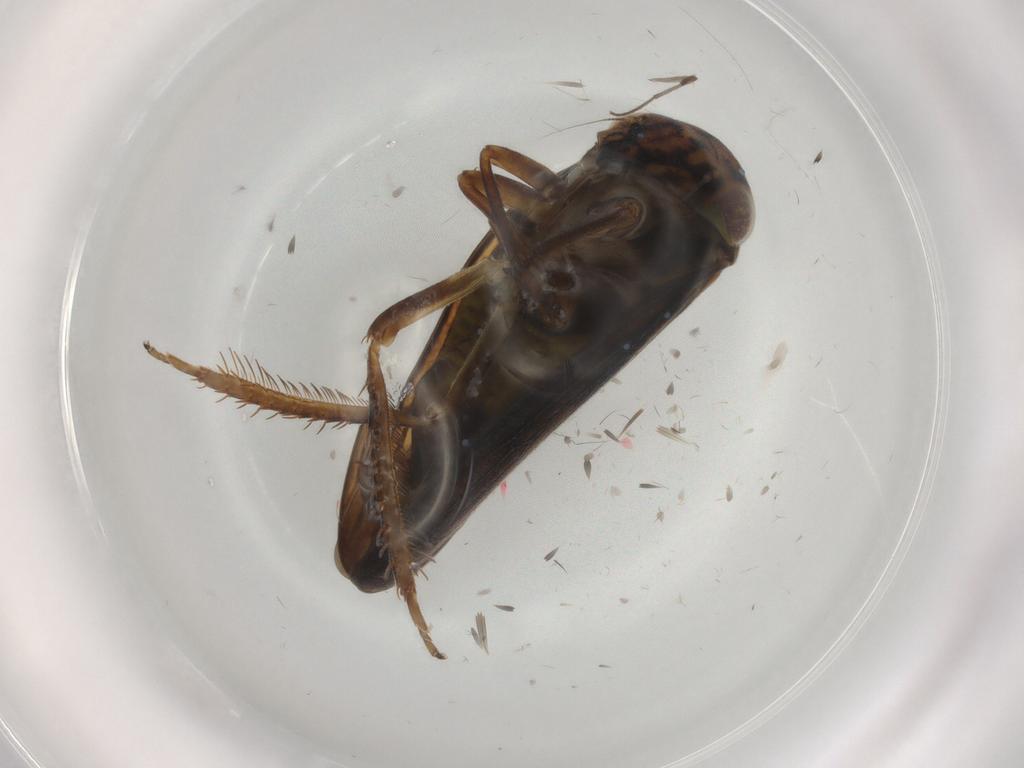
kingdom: Animalia
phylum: Arthropoda
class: Insecta
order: Hemiptera
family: Cicadellidae
